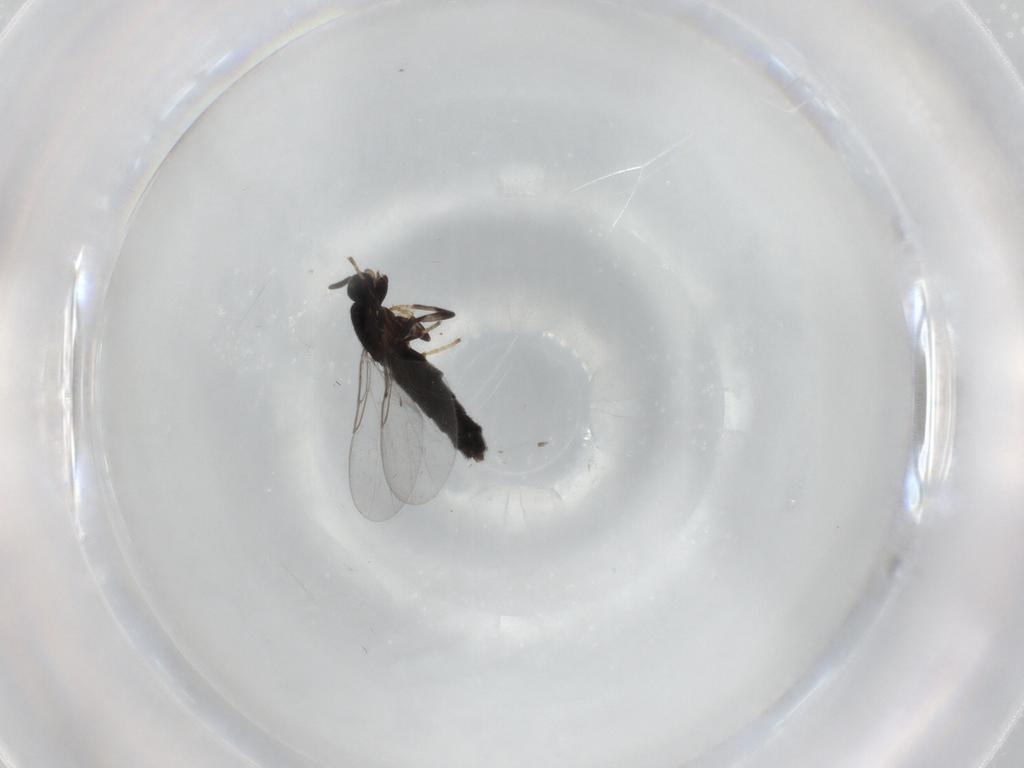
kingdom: Animalia
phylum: Arthropoda
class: Insecta
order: Diptera
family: Scatopsidae
